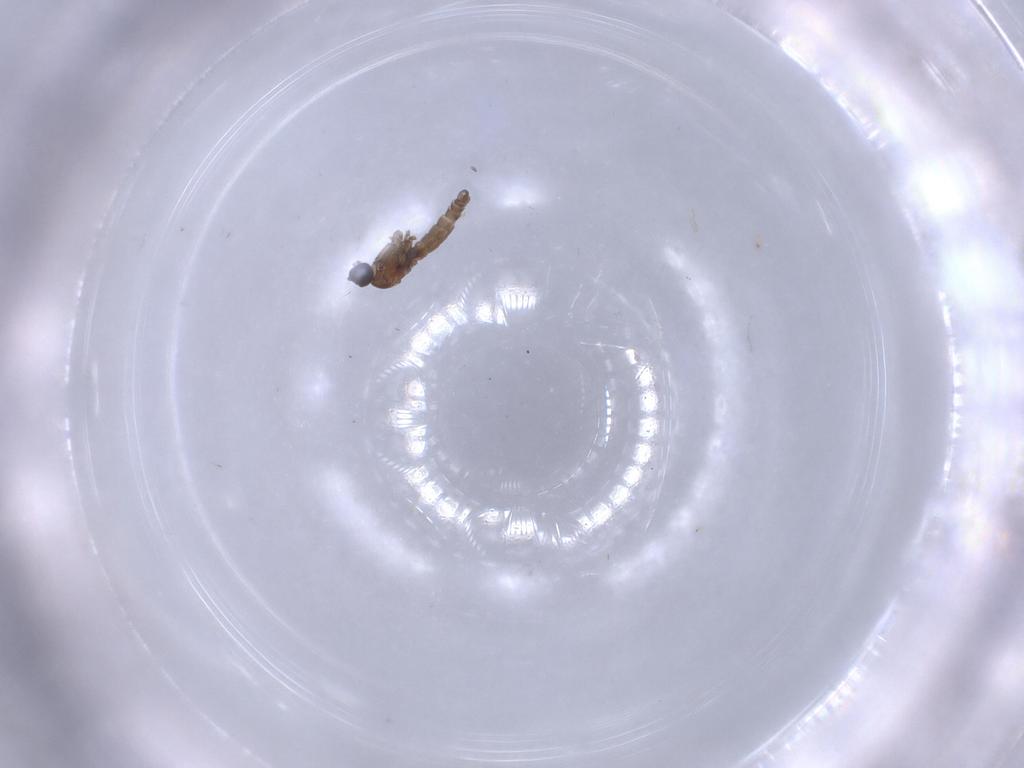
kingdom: Animalia
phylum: Arthropoda
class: Insecta
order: Diptera
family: Sciaridae
